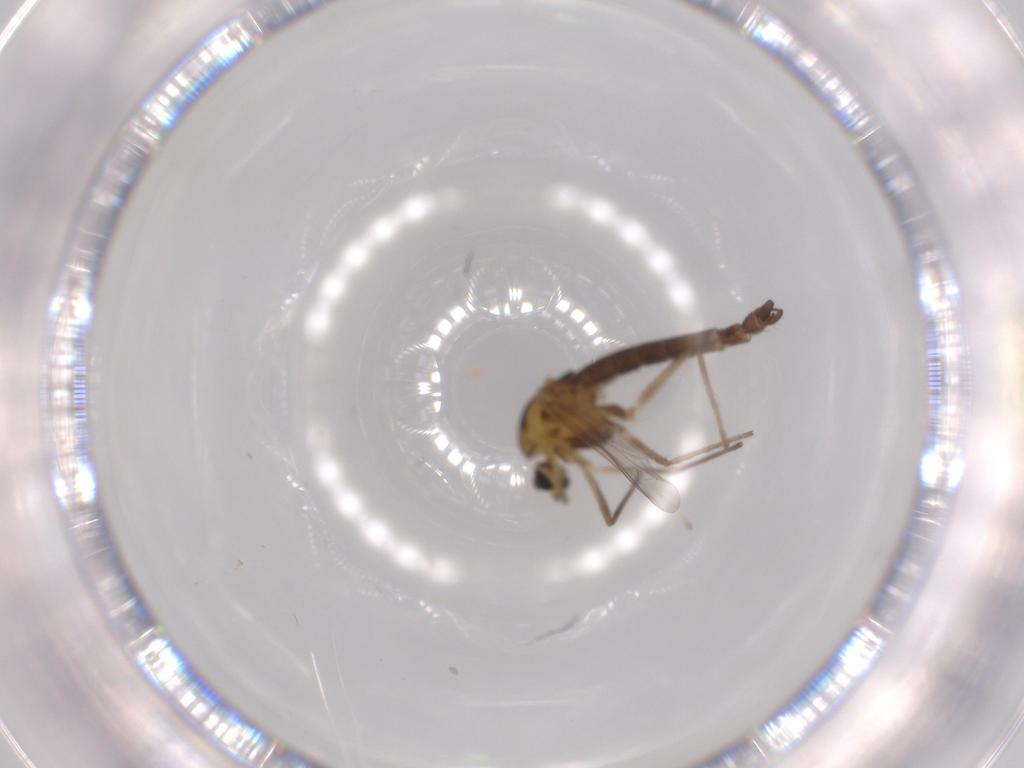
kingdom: Animalia
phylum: Arthropoda
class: Insecta
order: Diptera
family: Chironomidae
